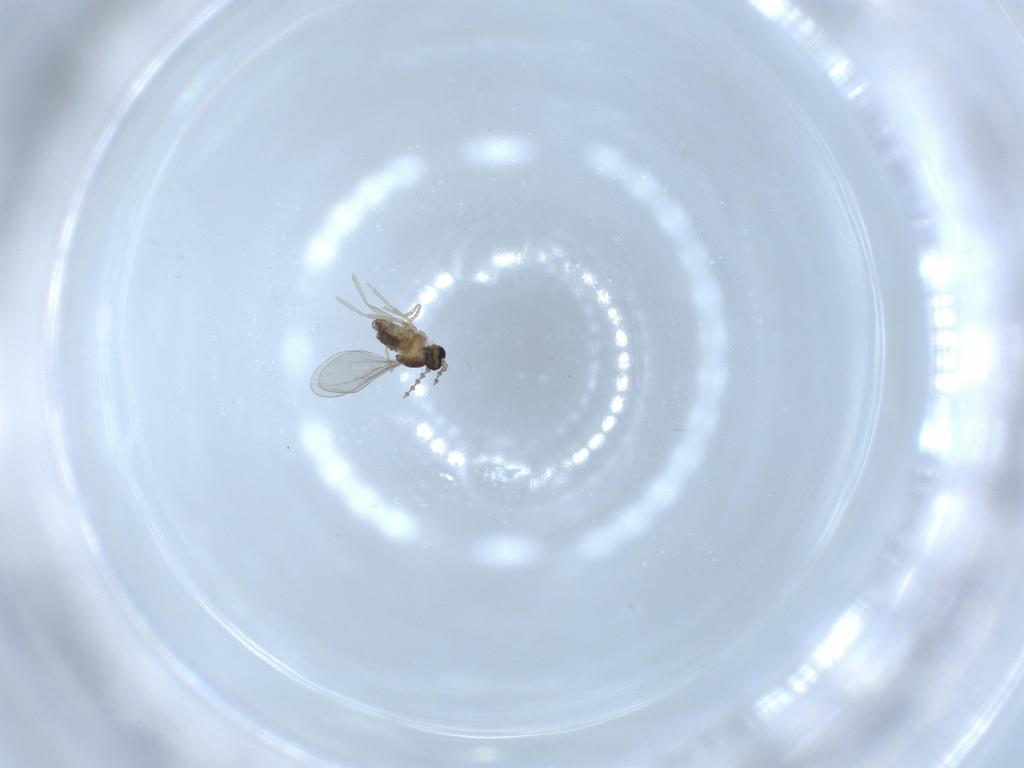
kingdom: Animalia
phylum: Arthropoda
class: Insecta
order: Diptera
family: Cecidomyiidae
